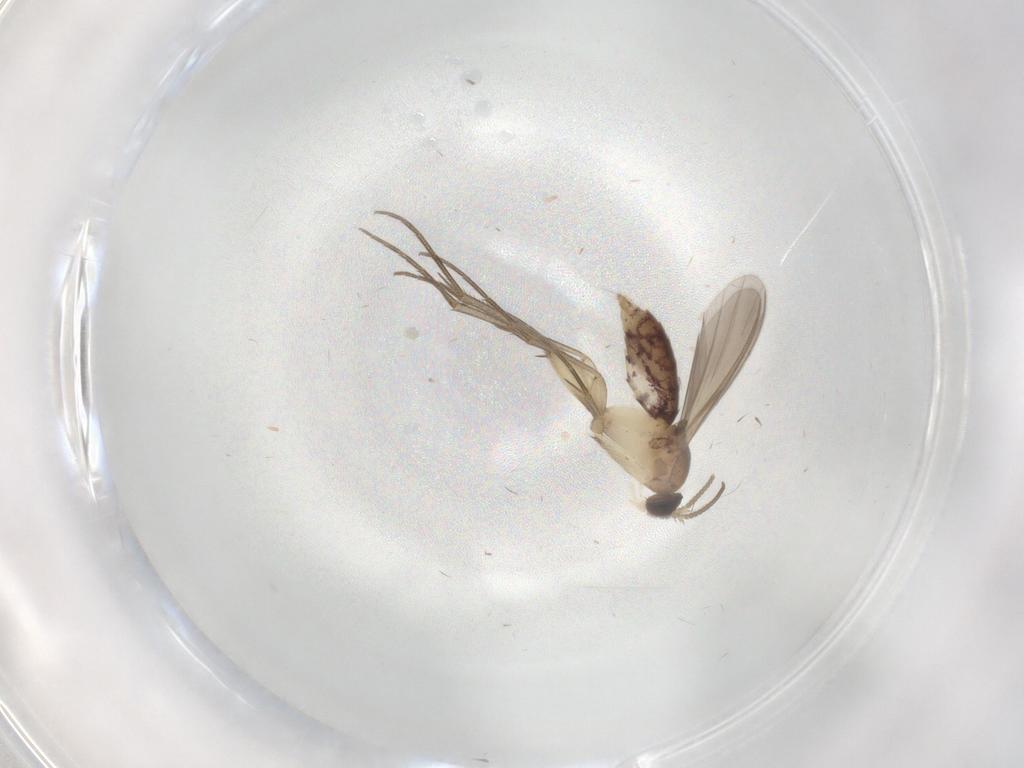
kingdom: Animalia
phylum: Arthropoda
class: Insecta
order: Diptera
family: Mycetophilidae
